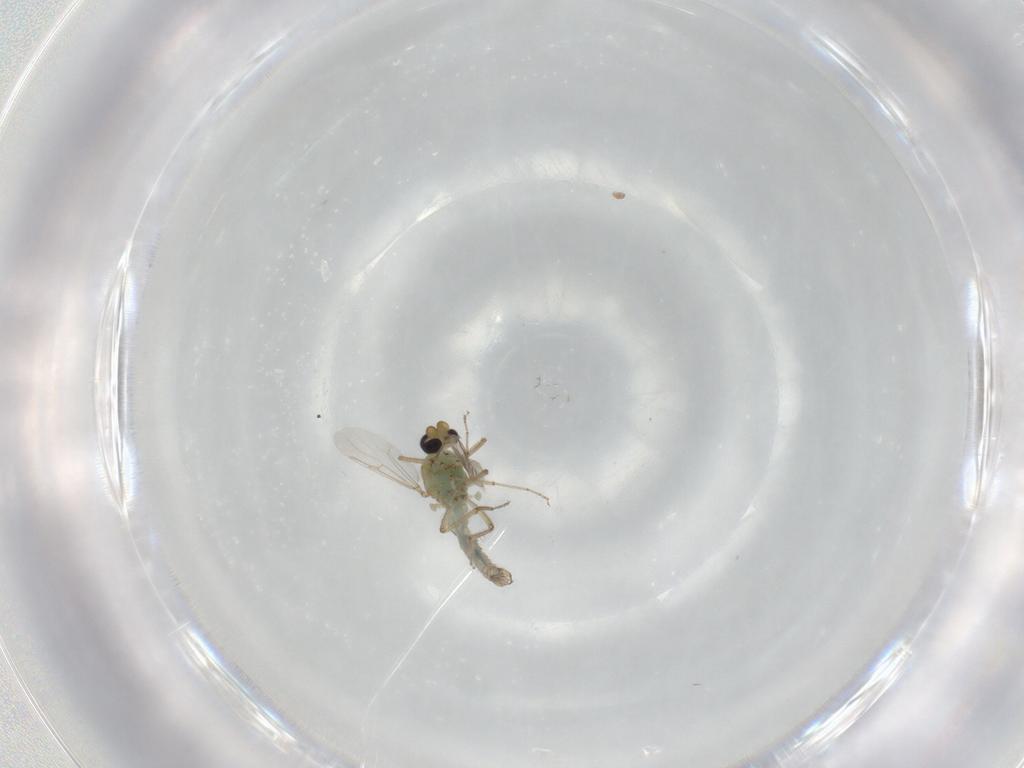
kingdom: Animalia
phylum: Arthropoda
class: Insecta
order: Diptera
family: Ceratopogonidae
